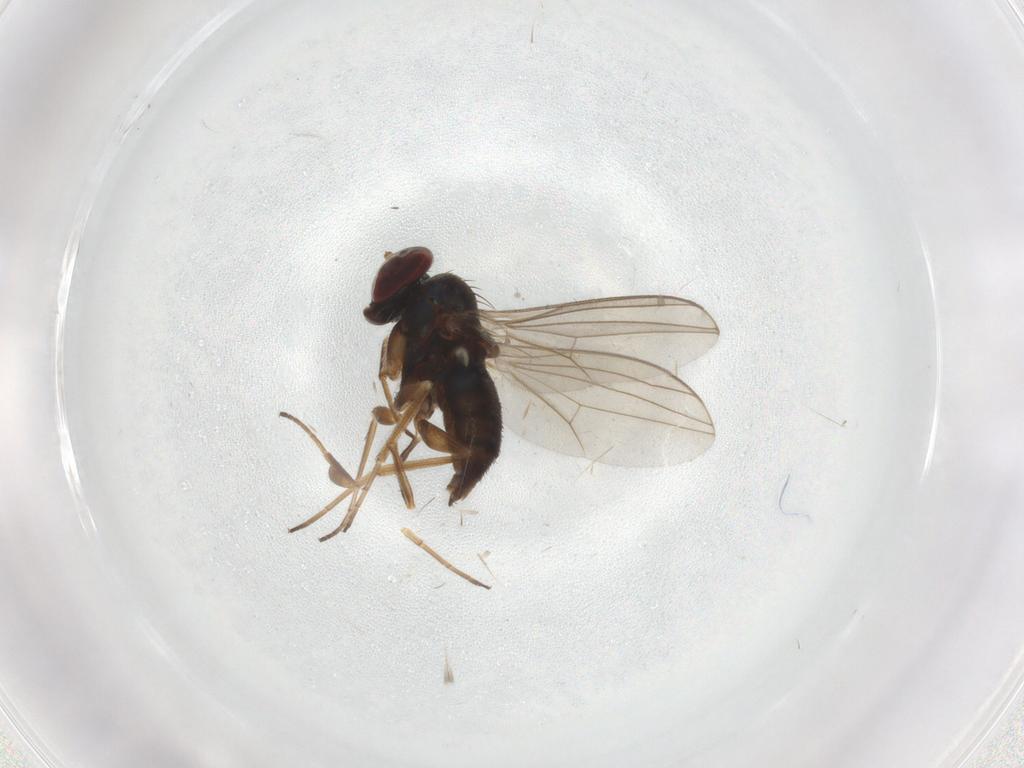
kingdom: Animalia
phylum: Arthropoda
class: Insecta
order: Diptera
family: Dolichopodidae
